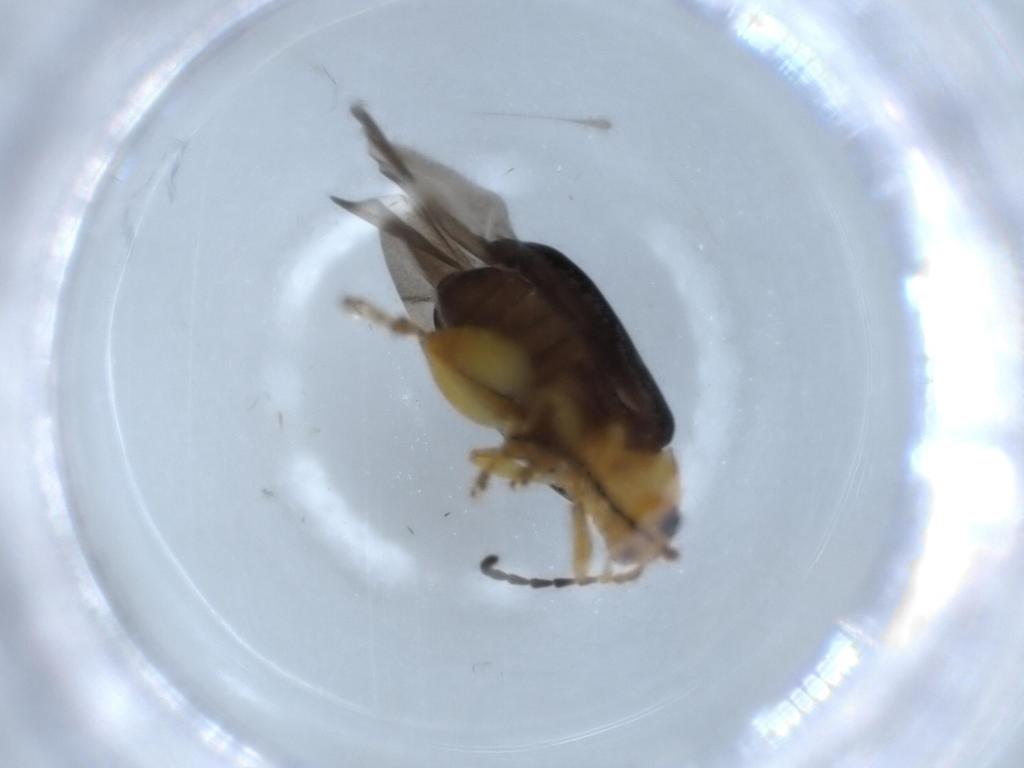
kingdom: Animalia
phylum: Arthropoda
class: Insecta
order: Coleoptera
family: Chrysomelidae
